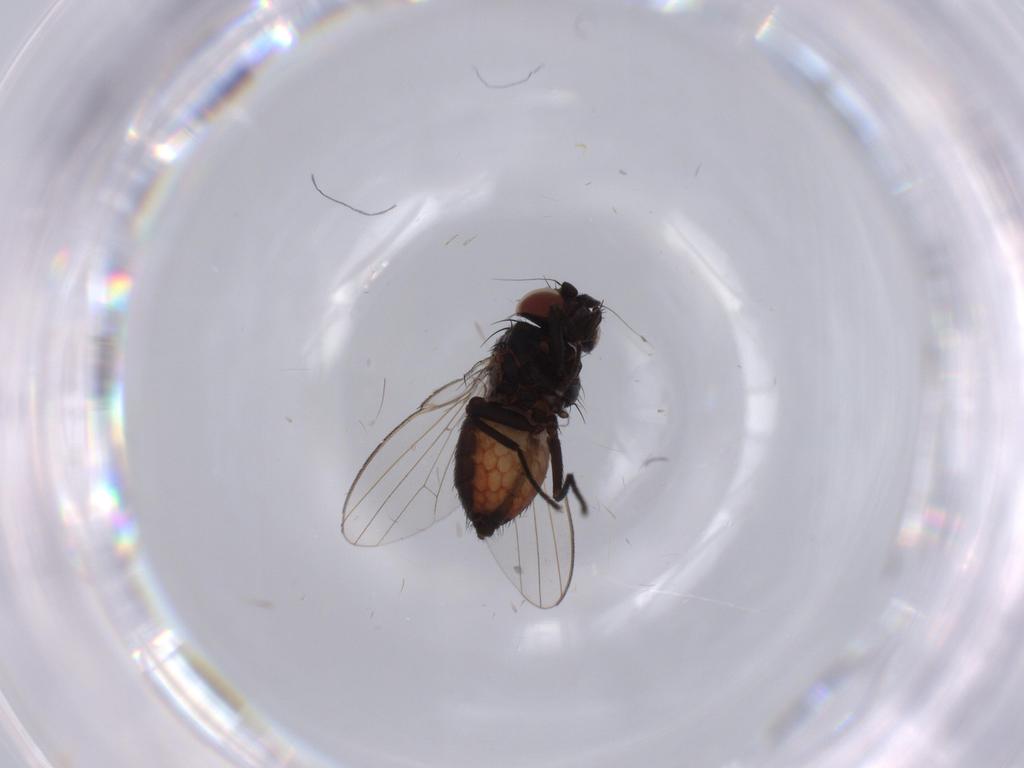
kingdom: Animalia
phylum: Arthropoda
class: Insecta
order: Diptera
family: Milichiidae
